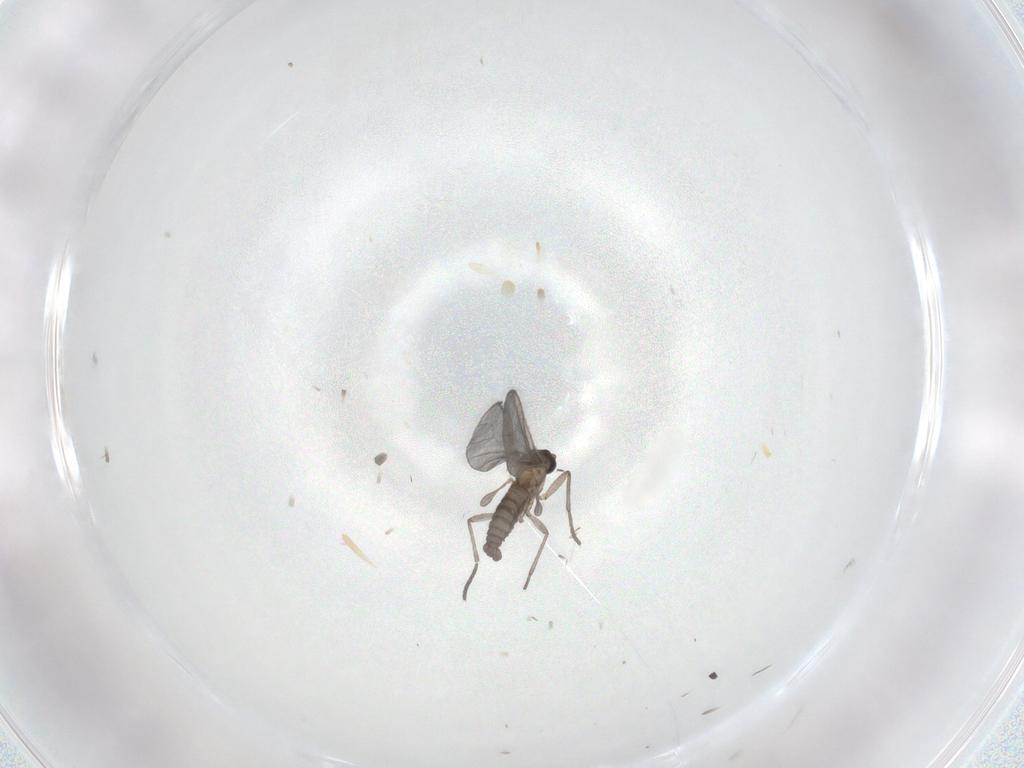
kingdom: Animalia
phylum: Arthropoda
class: Insecta
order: Diptera
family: Sciaridae
